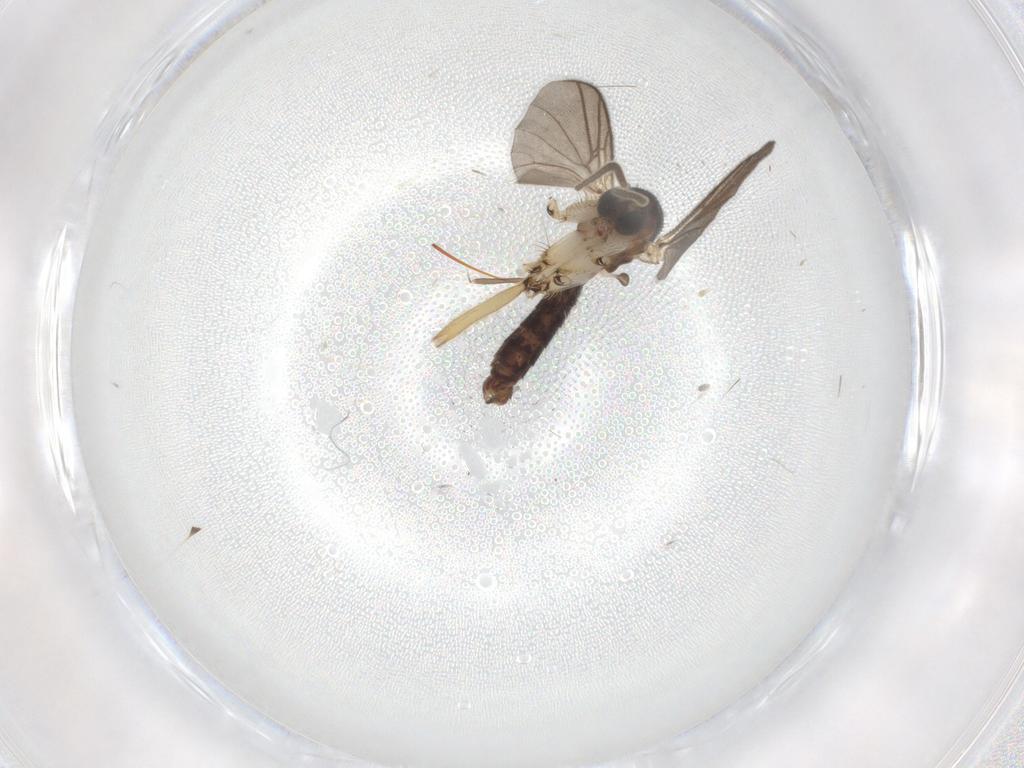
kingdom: Animalia
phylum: Arthropoda
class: Insecta
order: Diptera
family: Mycetophilidae
